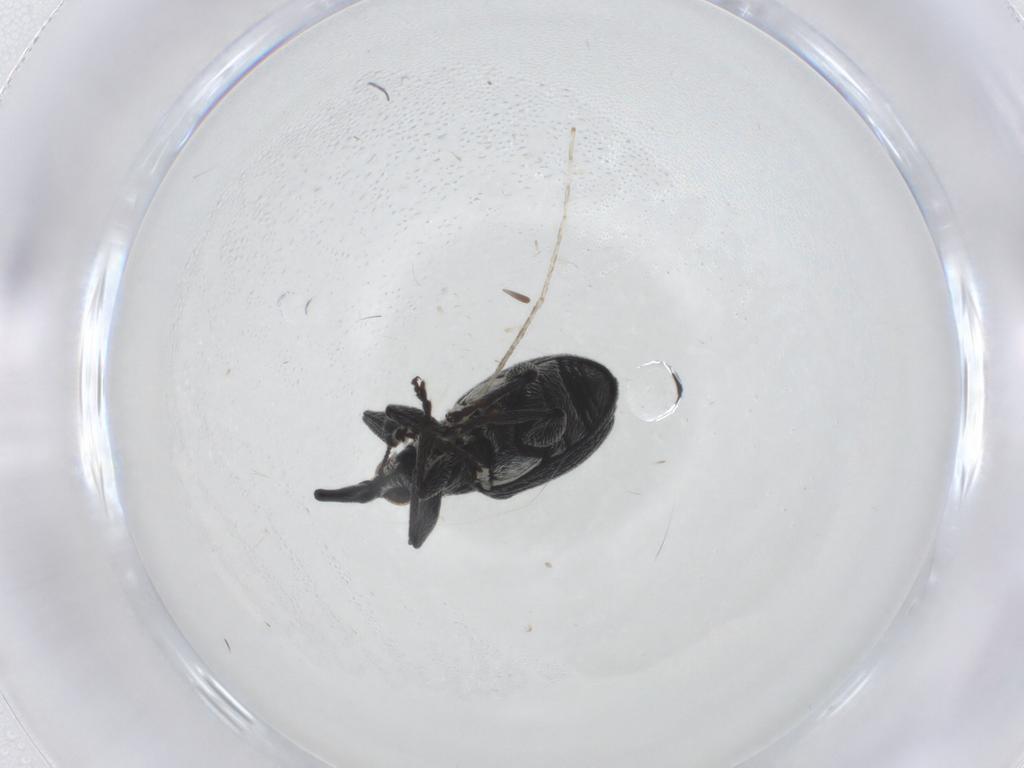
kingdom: Animalia
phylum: Arthropoda
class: Insecta
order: Coleoptera
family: Brentidae
